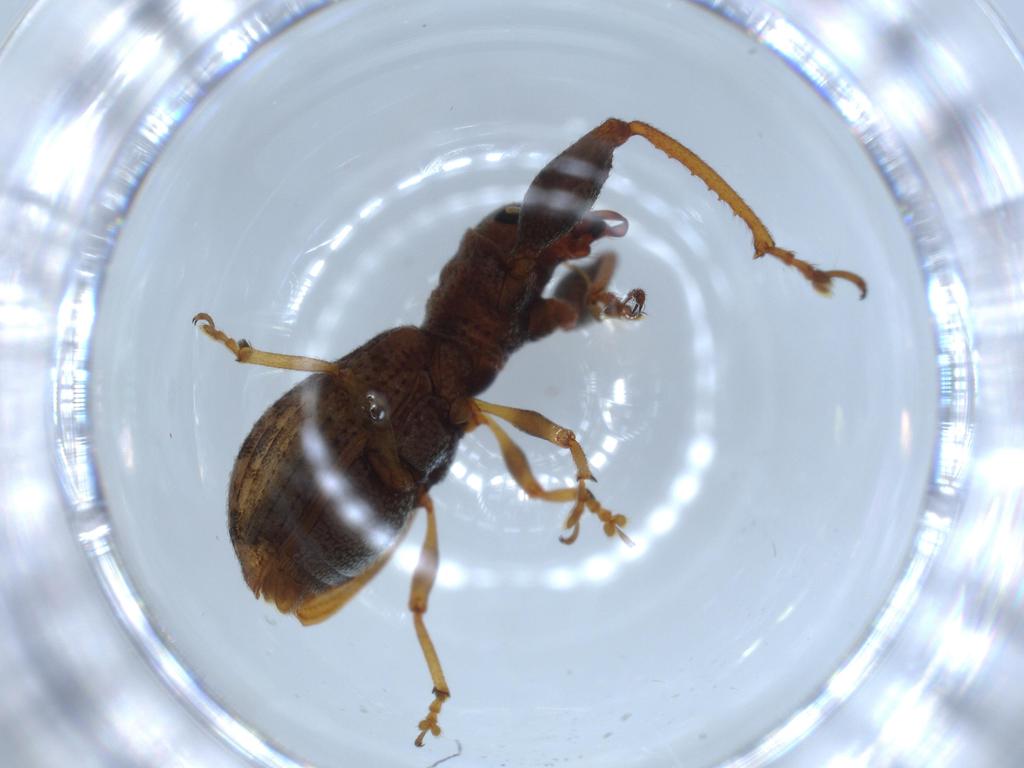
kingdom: Animalia
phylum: Arthropoda
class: Insecta
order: Coleoptera
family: Curculionidae
